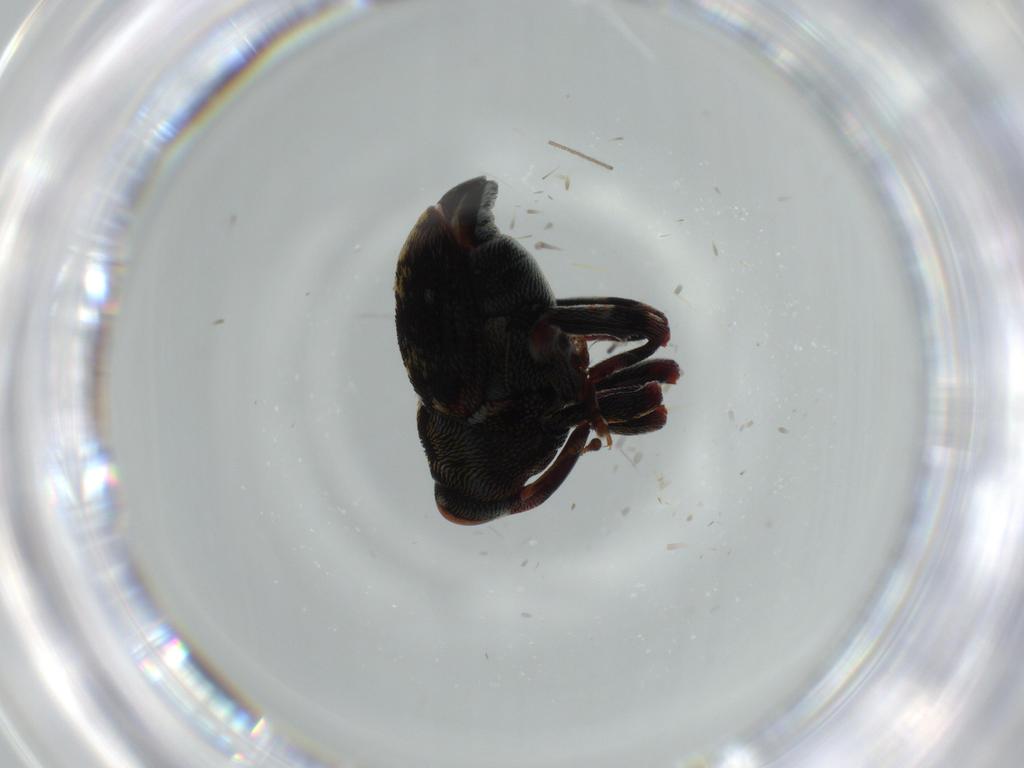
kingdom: Animalia
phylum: Arthropoda
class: Insecta
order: Coleoptera
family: Curculionidae
